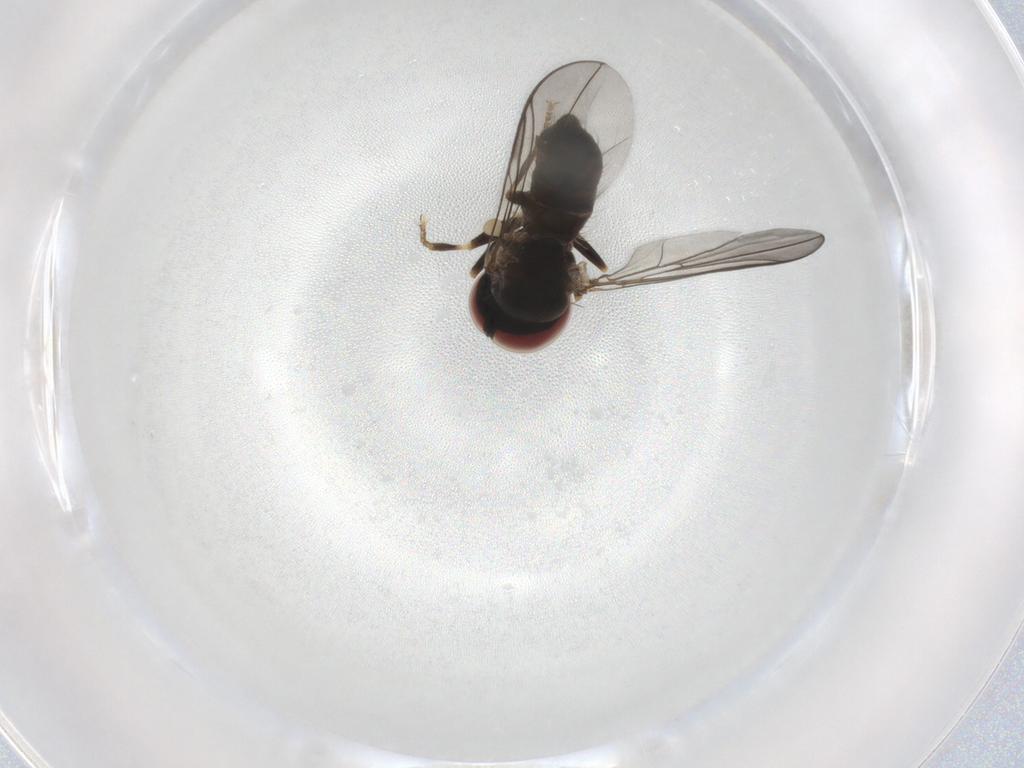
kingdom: Animalia
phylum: Arthropoda
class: Insecta
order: Diptera
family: Pipunculidae
